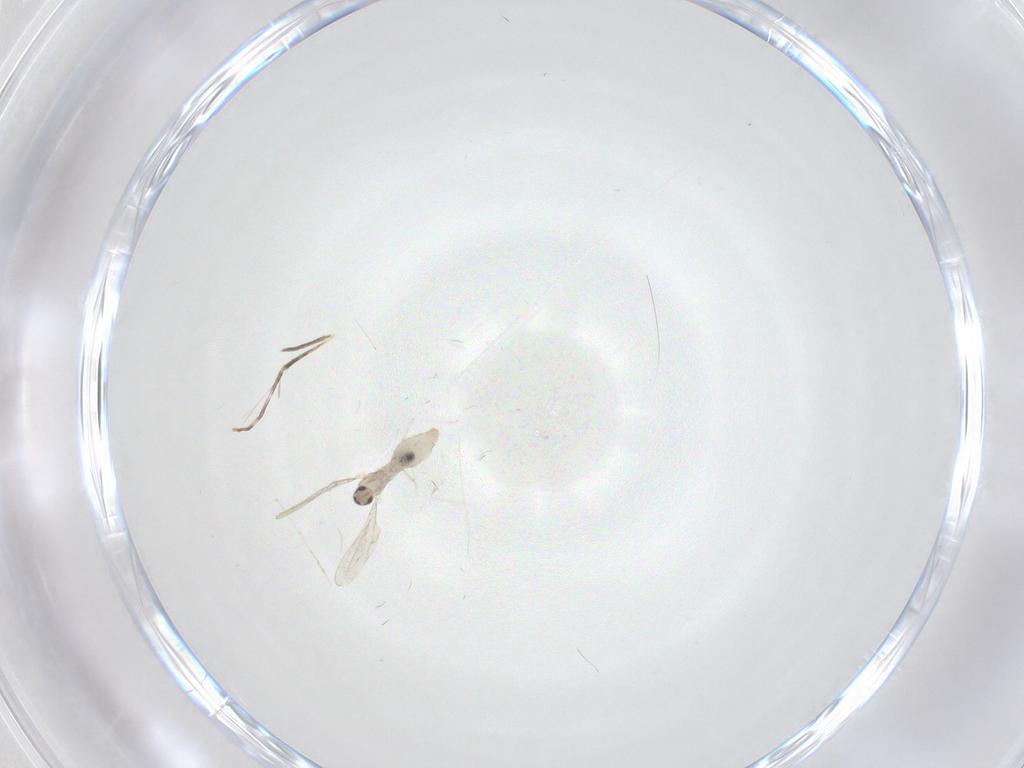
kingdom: Animalia
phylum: Arthropoda
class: Insecta
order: Diptera
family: Cecidomyiidae
